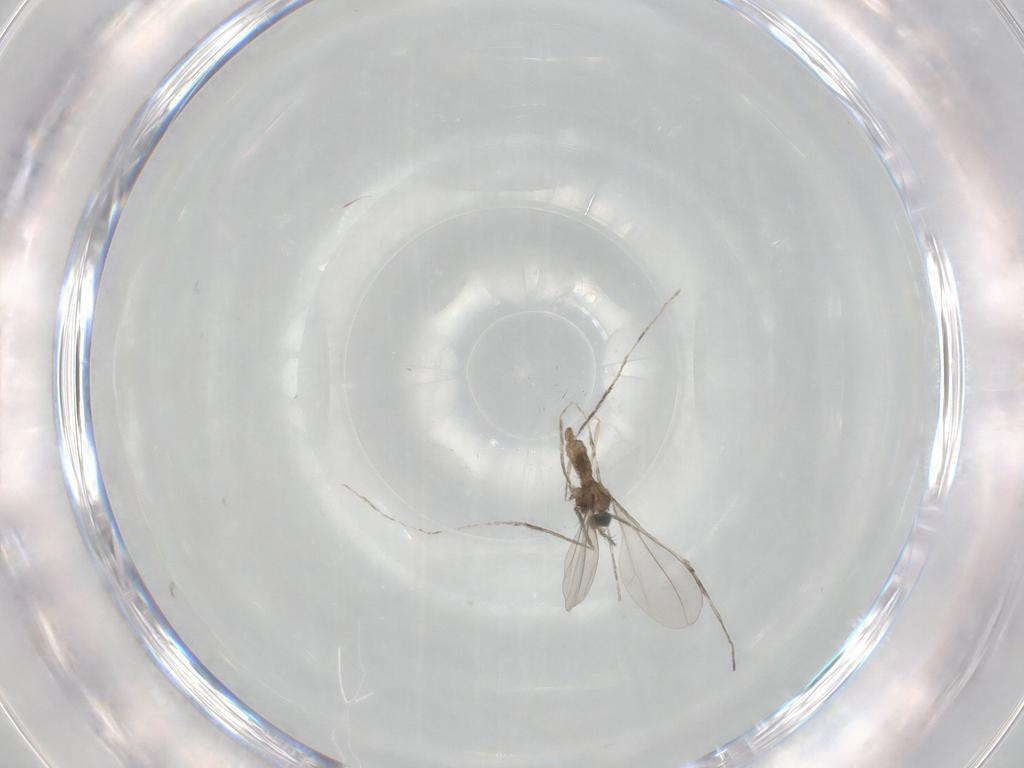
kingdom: Animalia
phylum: Arthropoda
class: Insecta
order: Diptera
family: Cecidomyiidae
